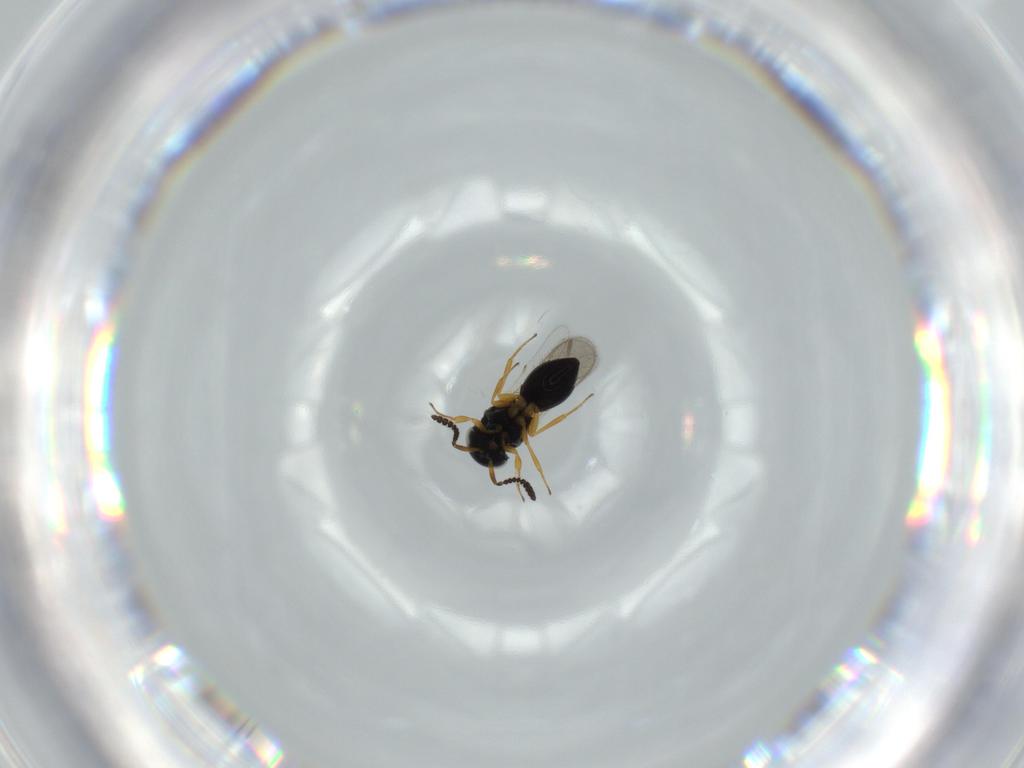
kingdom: Animalia
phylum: Arthropoda
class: Insecta
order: Hymenoptera
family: Scelionidae
